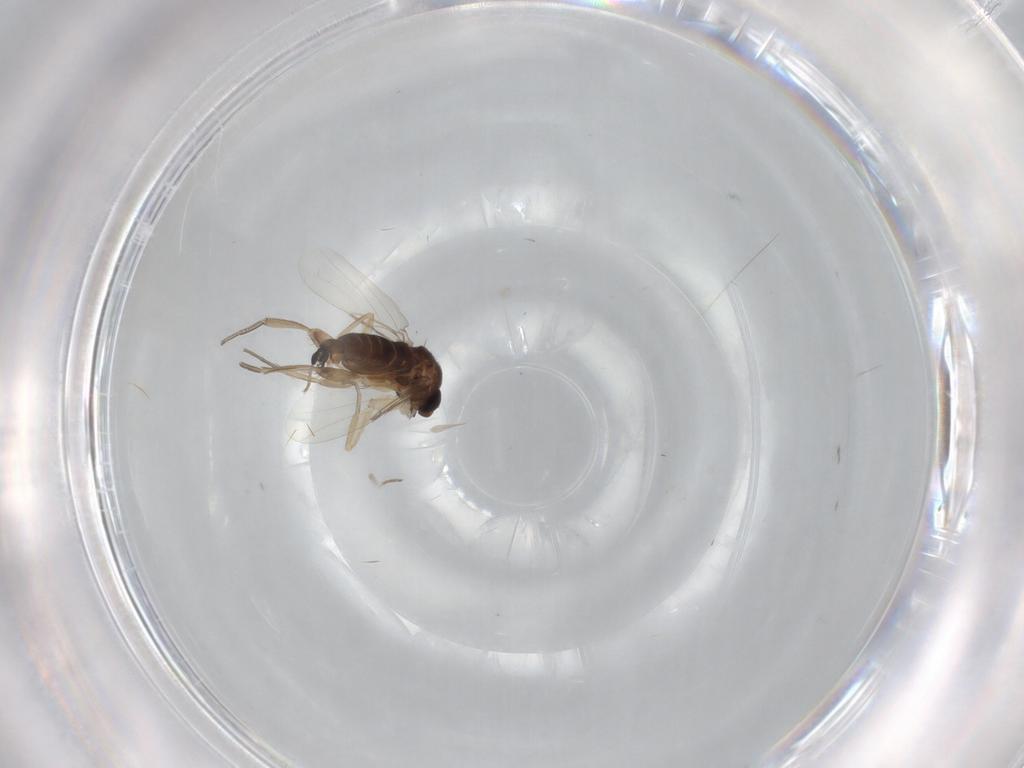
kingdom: Animalia
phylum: Arthropoda
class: Insecta
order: Diptera
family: Phoridae
